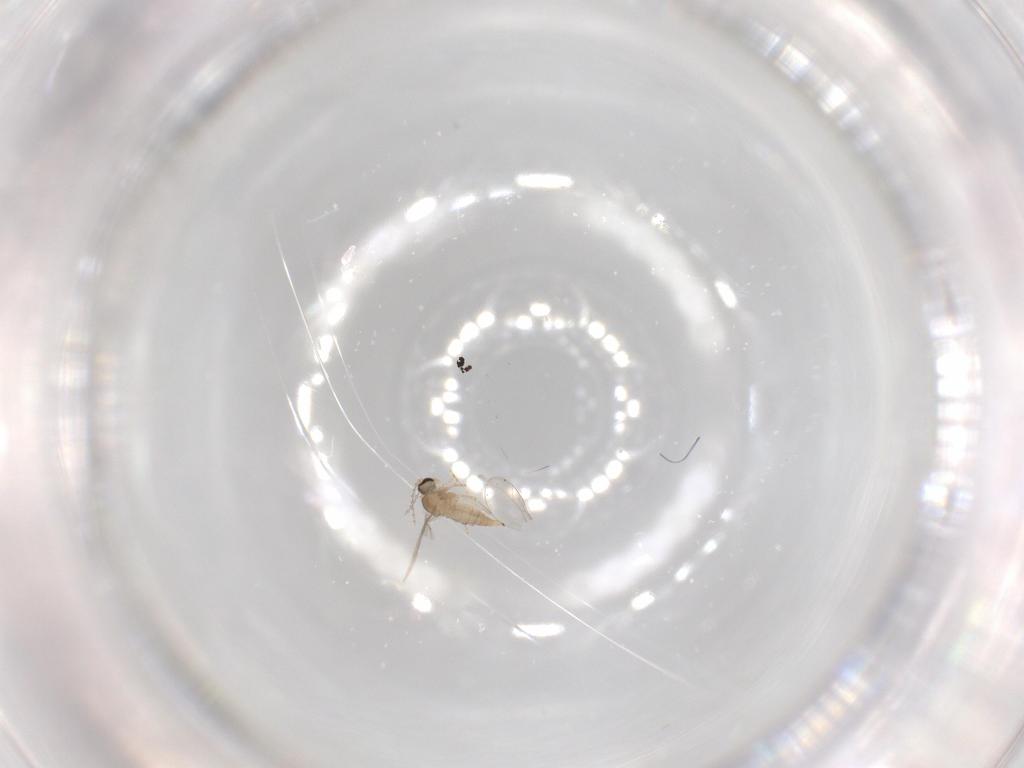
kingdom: Animalia
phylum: Arthropoda
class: Insecta
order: Diptera
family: Cecidomyiidae
